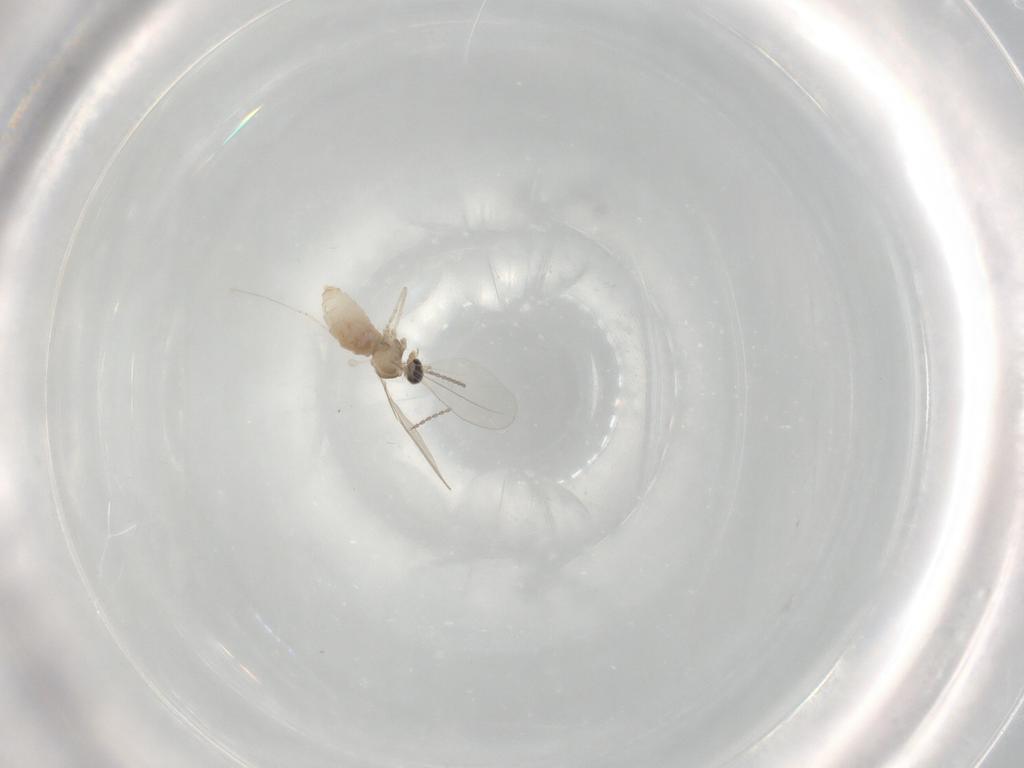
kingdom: Animalia
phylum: Arthropoda
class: Insecta
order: Diptera
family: Cecidomyiidae
